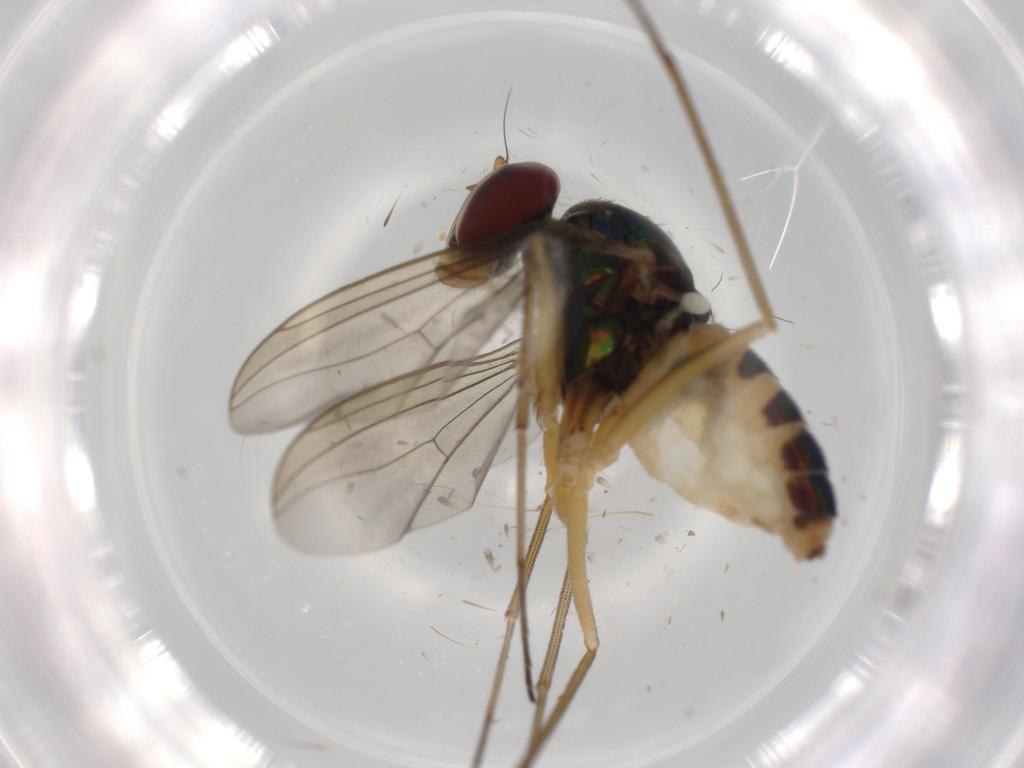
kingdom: Animalia
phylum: Arthropoda
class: Insecta
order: Diptera
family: Dolichopodidae
